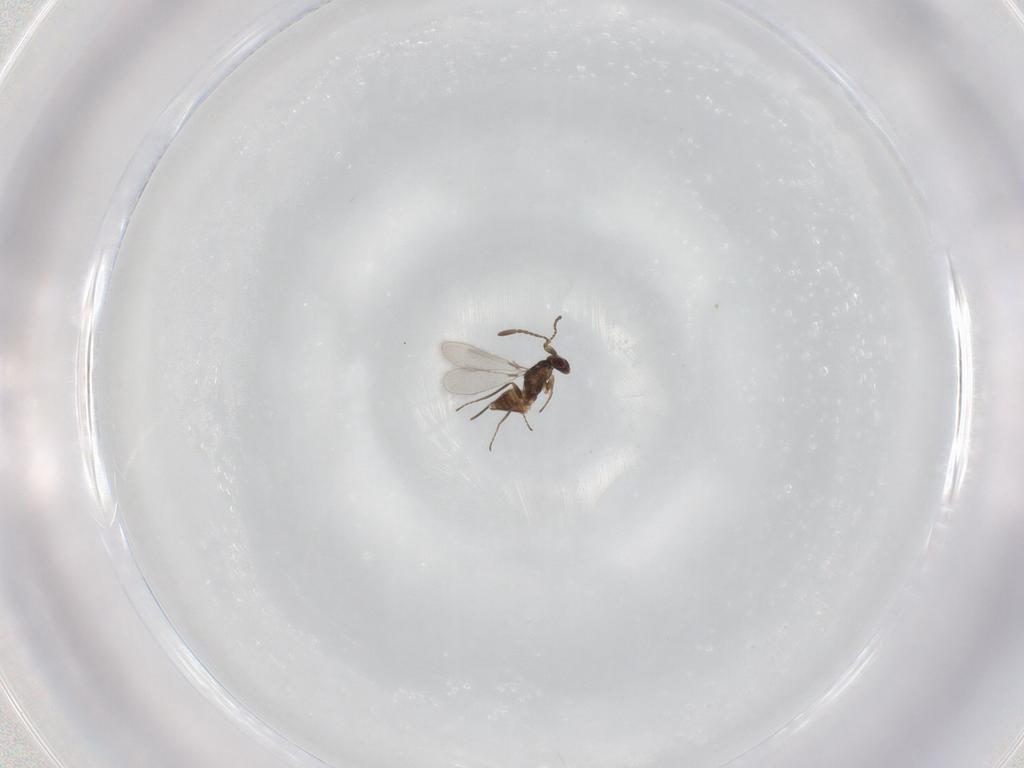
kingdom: Animalia
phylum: Arthropoda
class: Insecta
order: Hymenoptera
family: Mymaridae
